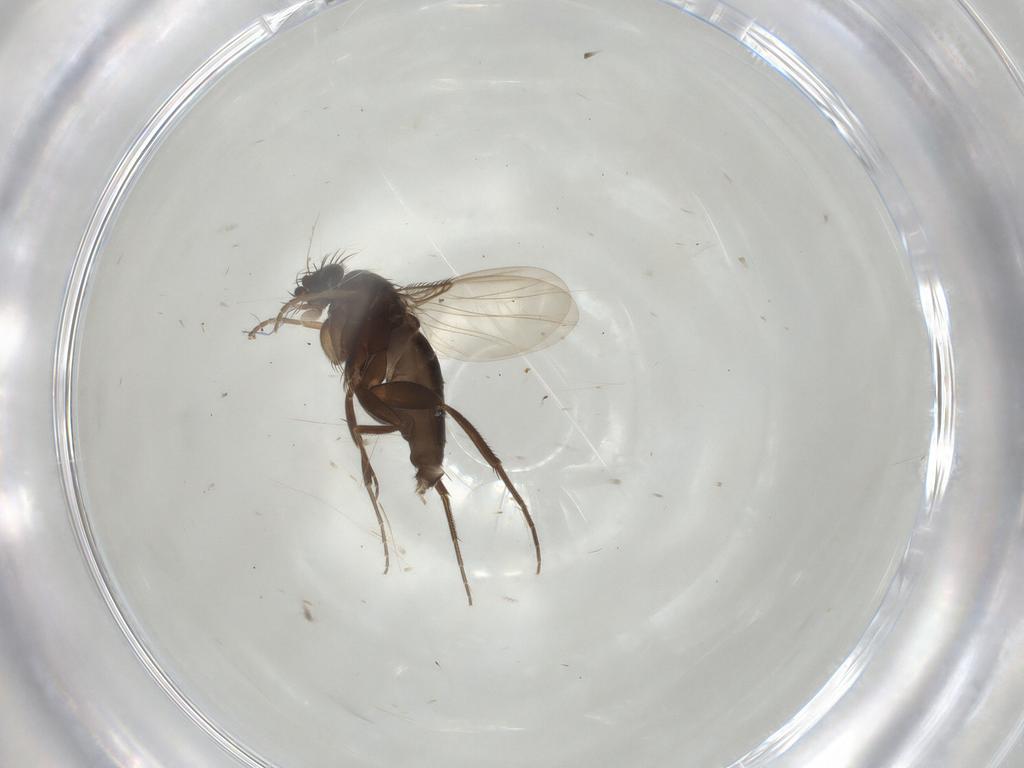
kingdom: Animalia
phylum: Arthropoda
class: Insecta
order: Diptera
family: Phoridae
